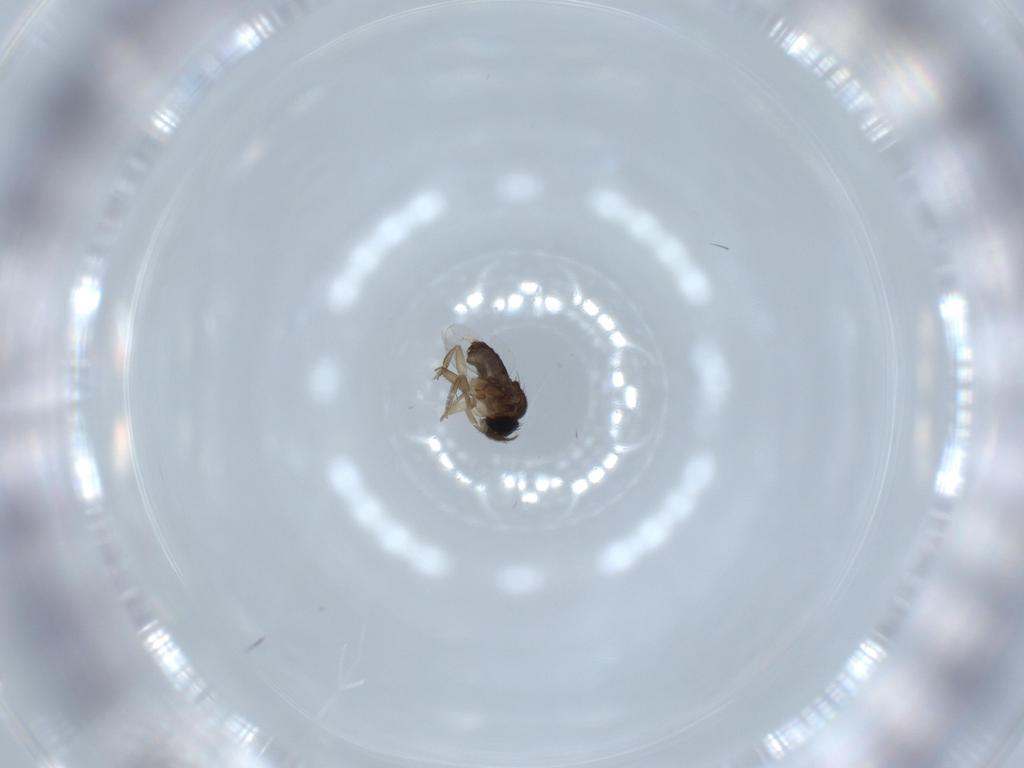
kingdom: Animalia
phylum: Arthropoda
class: Insecta
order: Diptera
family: Phoridae
